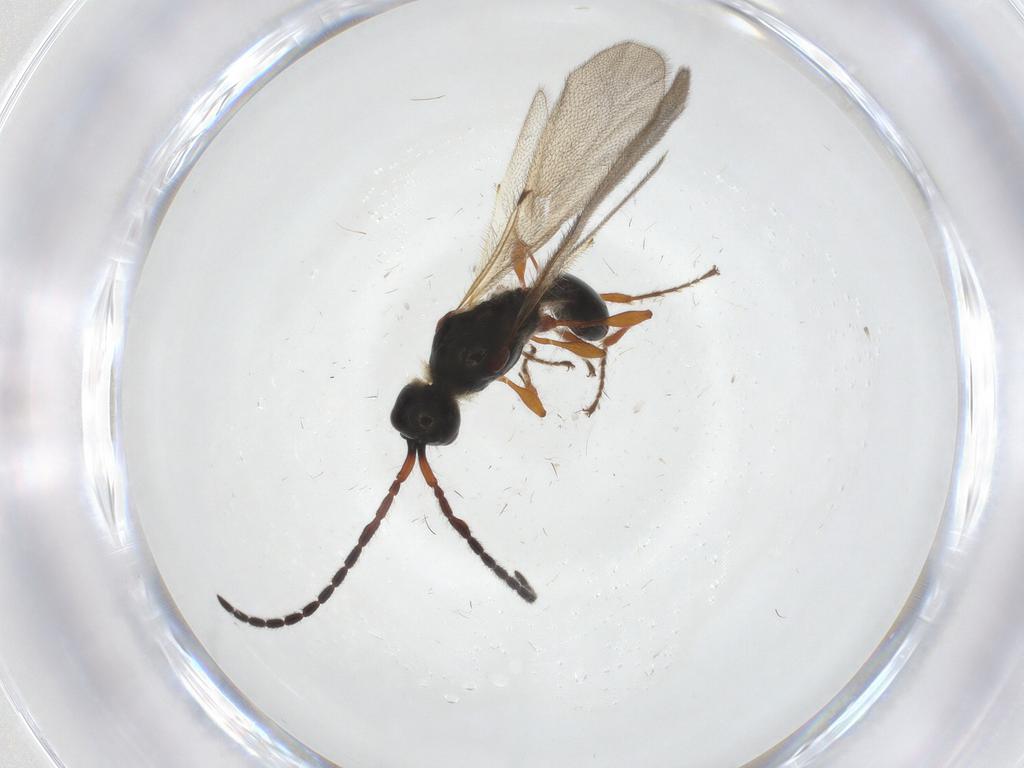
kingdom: Animalia
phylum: Arthropoda
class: Insecta
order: Hymenoptera
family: Diapriidae
